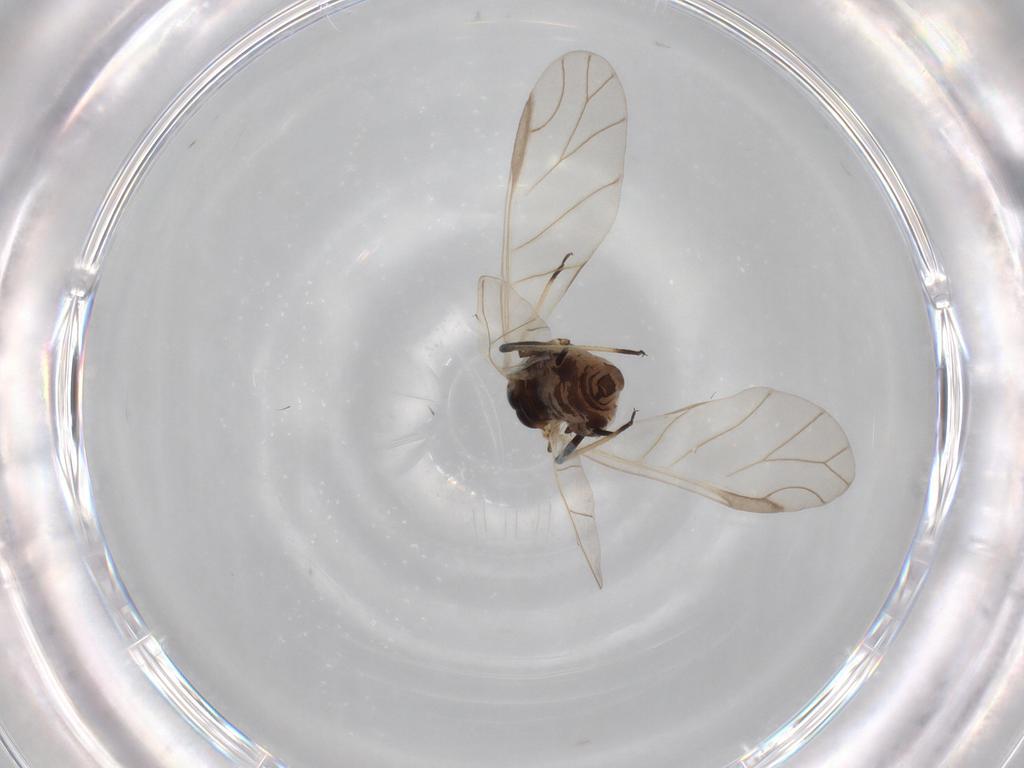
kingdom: Animalia
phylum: Arthropoda
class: Insecta
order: Hemiptera
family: Aphididae
